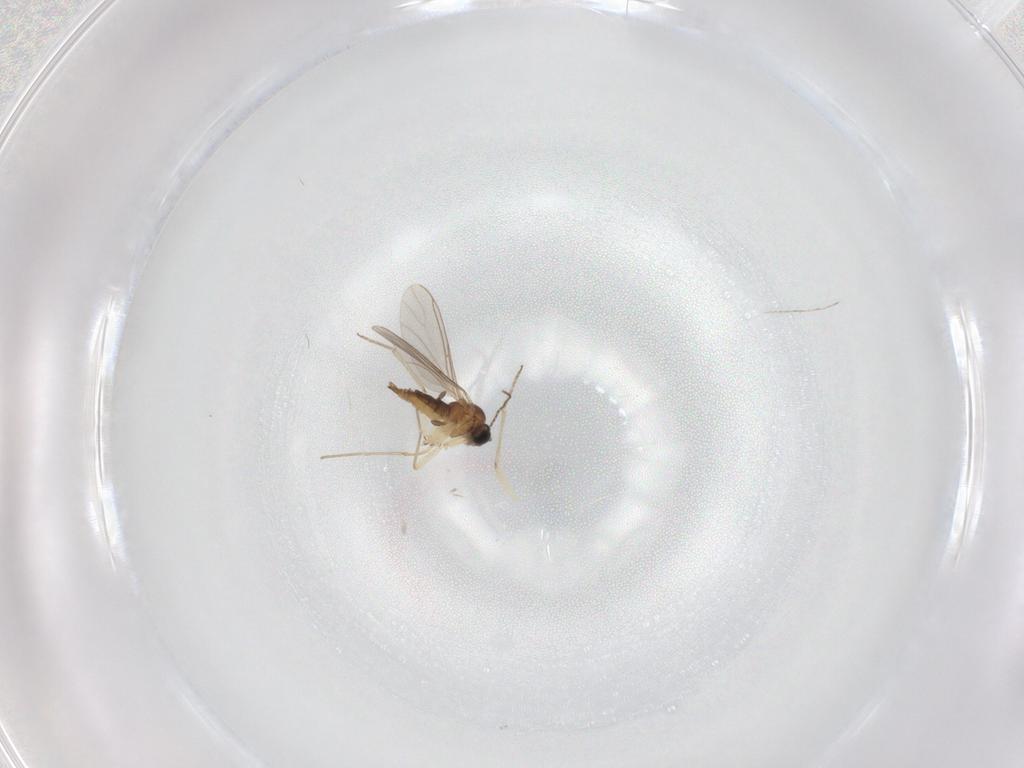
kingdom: Animalia
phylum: Arthropoda
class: Insecta
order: Diptera
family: Sciaridae
